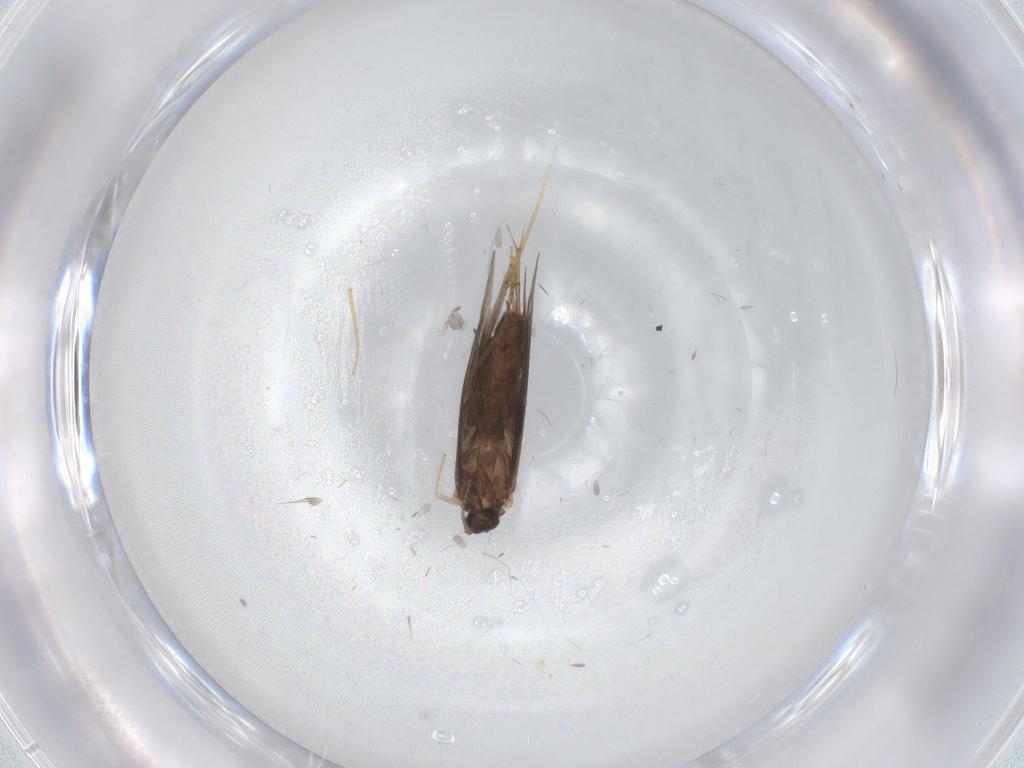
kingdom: Animalia
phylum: Arthropoda
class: Insecta
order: Trichoptera
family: Hydroptilidae
